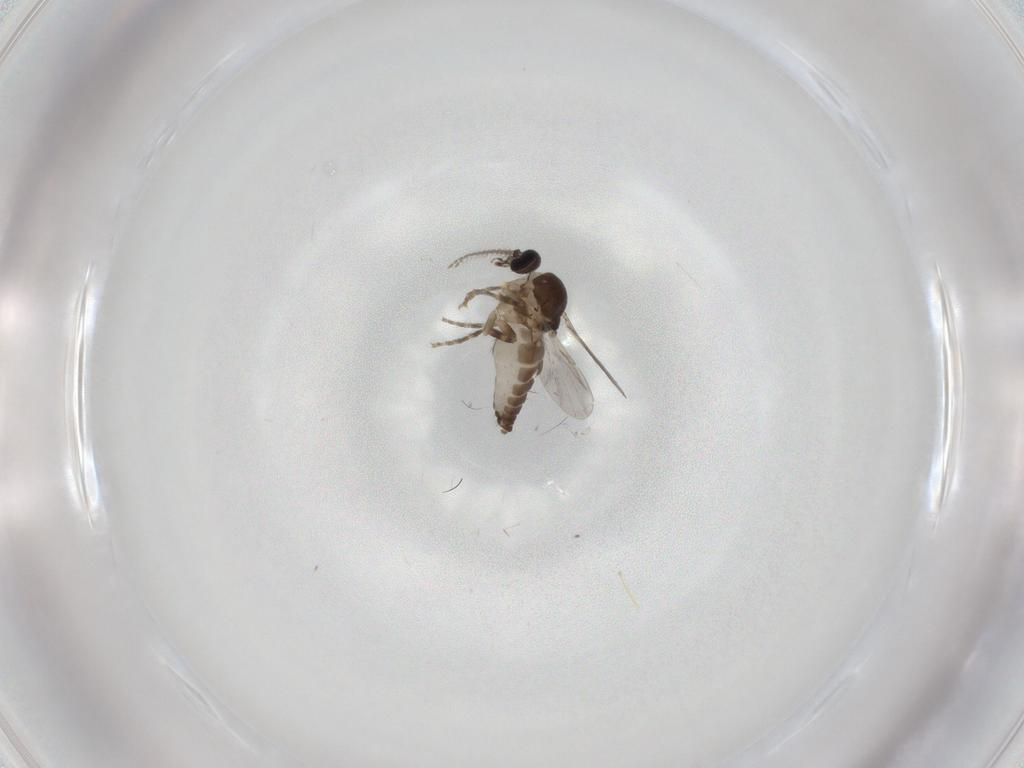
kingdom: Animalia
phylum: Arthropoda
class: Insecta
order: Diptera
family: Ceratopogonidae
